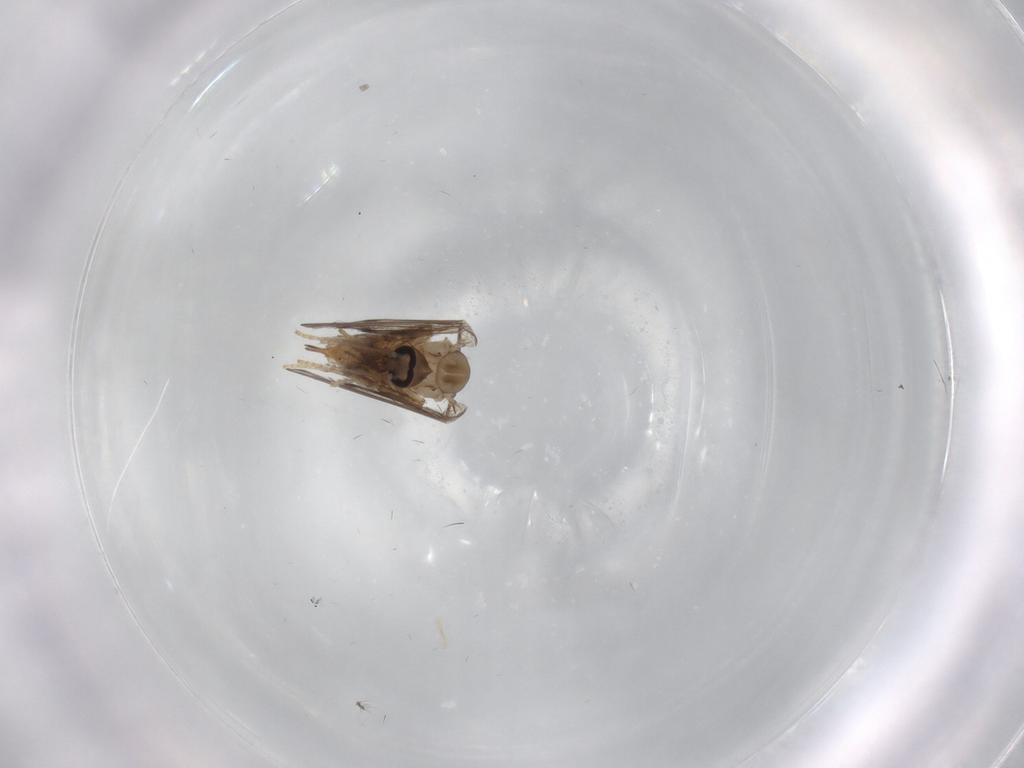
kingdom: Animalia
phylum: Arthropoda
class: Insecta
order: Diptera
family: Psychodidae
